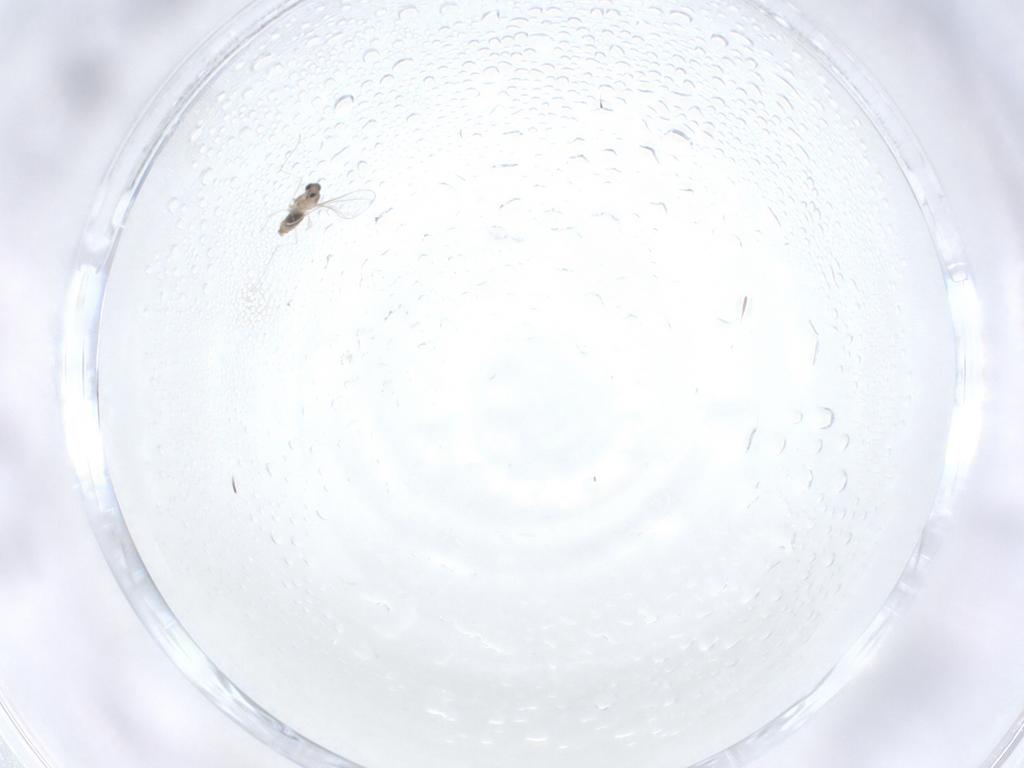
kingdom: Animalia
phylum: Arthropoda
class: Insecta
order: Diptera
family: Cecidomyiidae
